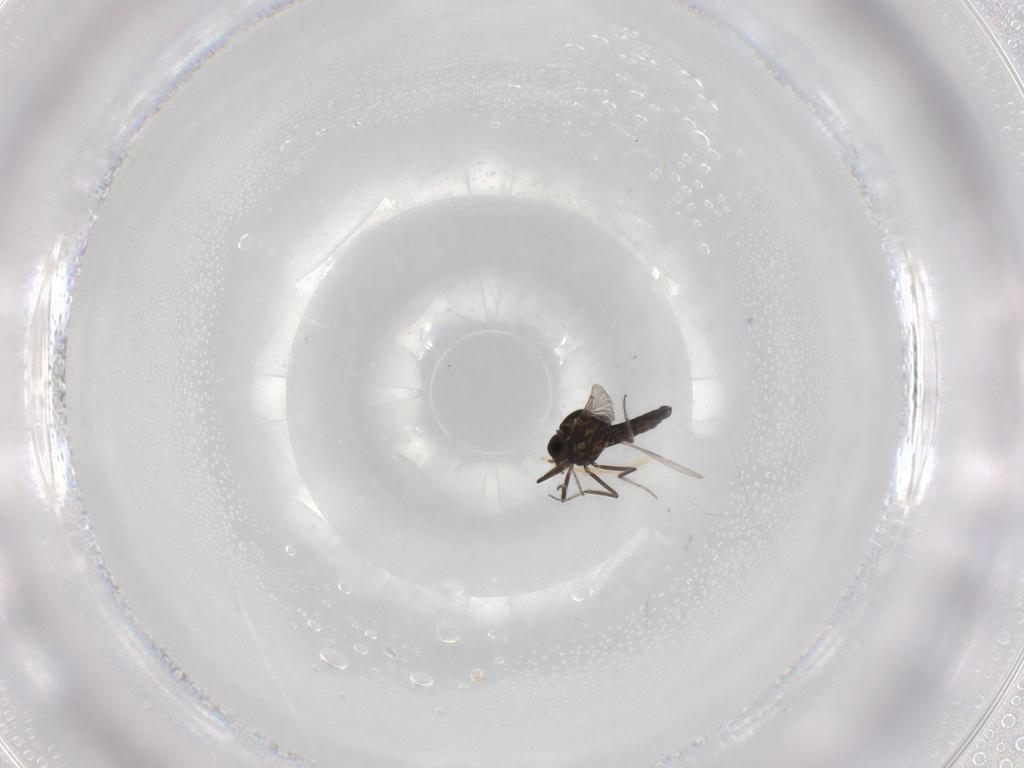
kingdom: Animalia
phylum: Arthropoda
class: Insecta
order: Diptera
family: Ceratopogonidae
